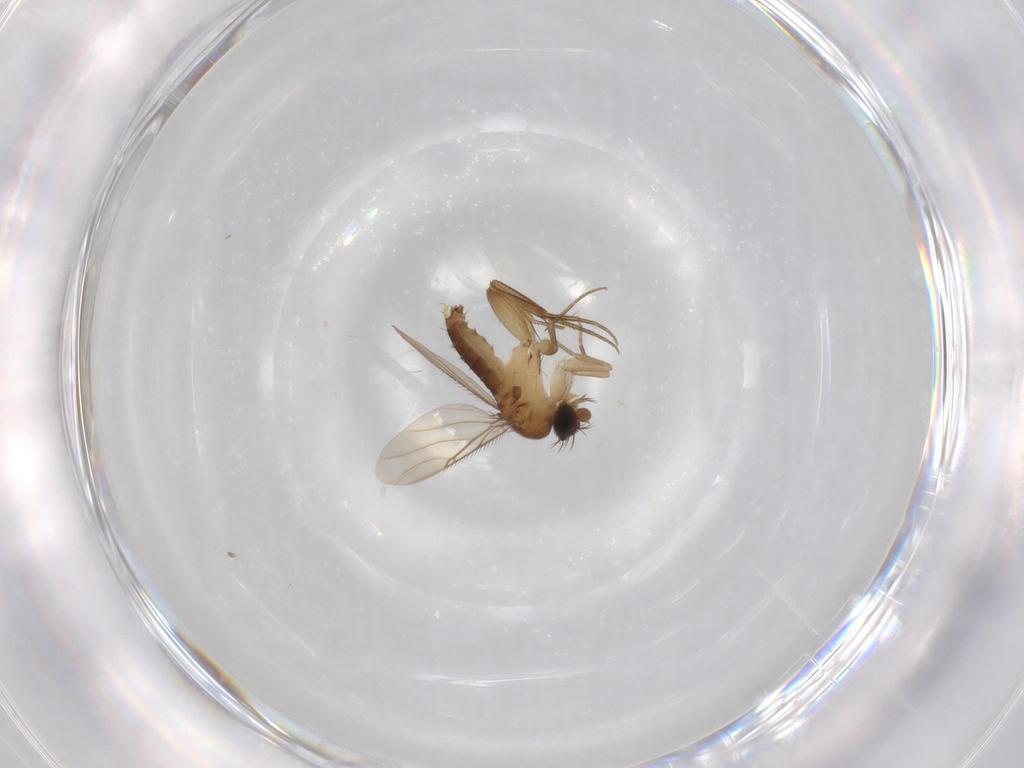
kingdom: Animalia
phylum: Arthropoda
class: Insecta
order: Diptera
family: Phoridae
